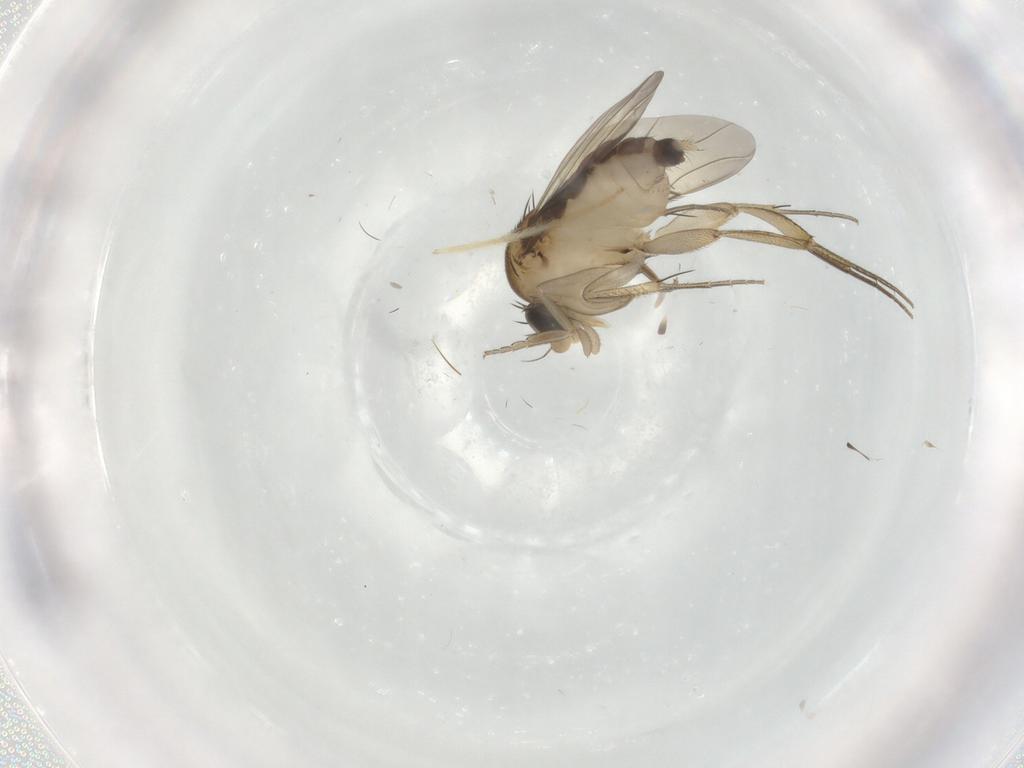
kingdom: Animalia
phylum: Arthropoda
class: Insecta
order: Diptera
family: Phoridae
